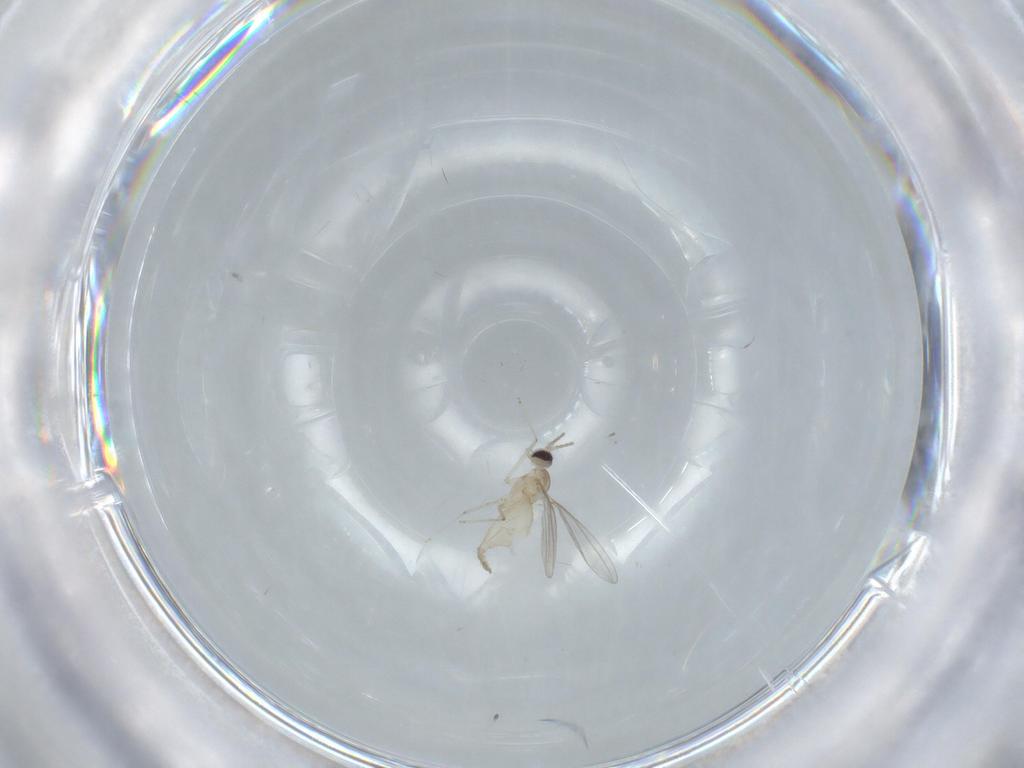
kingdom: Animalia
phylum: Arthropoda
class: Insecta
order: Diptera
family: Cecidomyiidae
